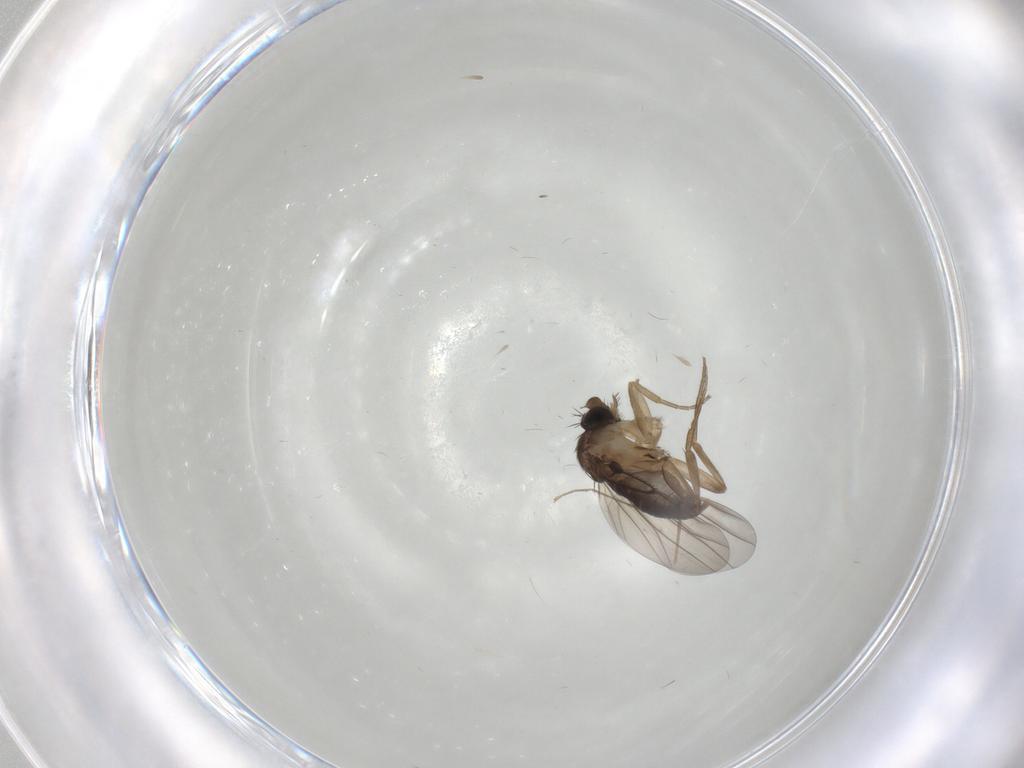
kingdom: Animalia
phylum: Arthropoda
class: Insecta
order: Diptera
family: Phoridae
